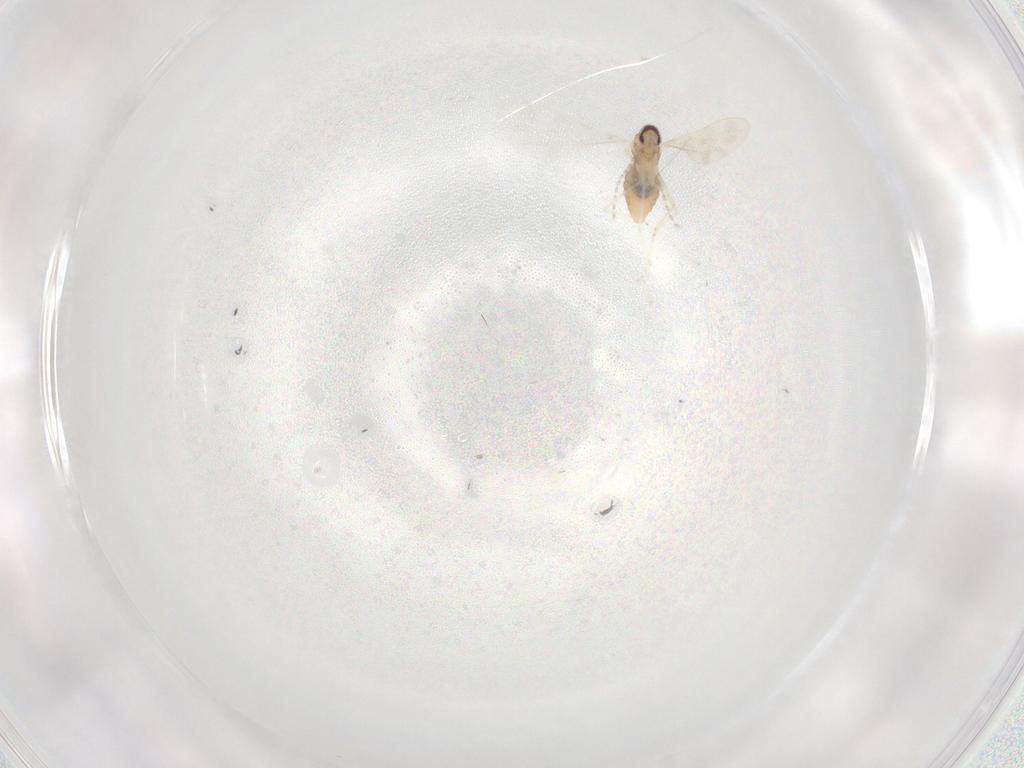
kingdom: Animalia
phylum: Arthropoda
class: Insecta
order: Diptera
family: Cecidomyiidae
